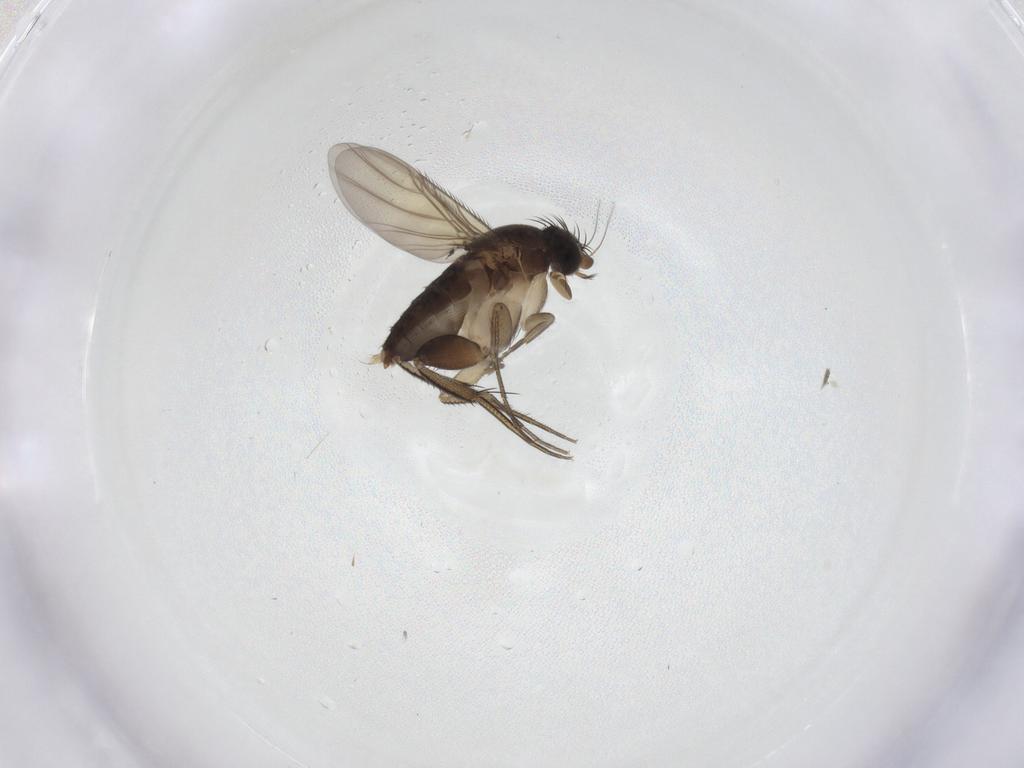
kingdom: Animalia
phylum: Arthropoda
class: Insecta
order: Diptera
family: Phoridae
